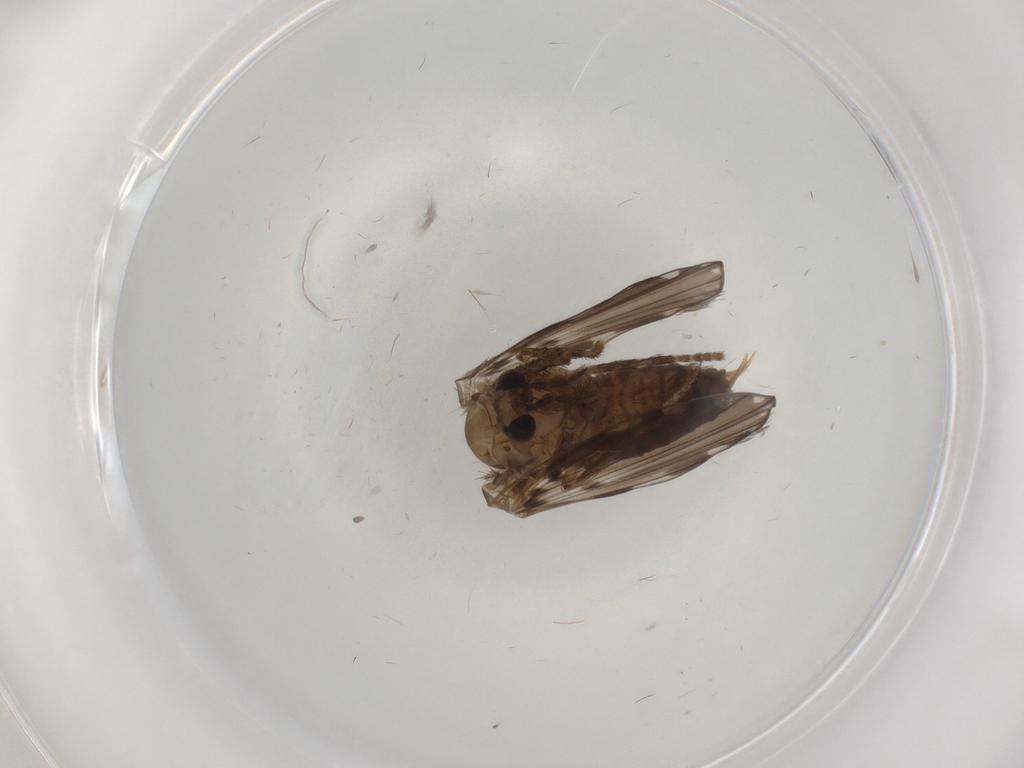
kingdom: Animalia
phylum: Arthropoda
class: Insecta
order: Diptera
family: Psychodidae
